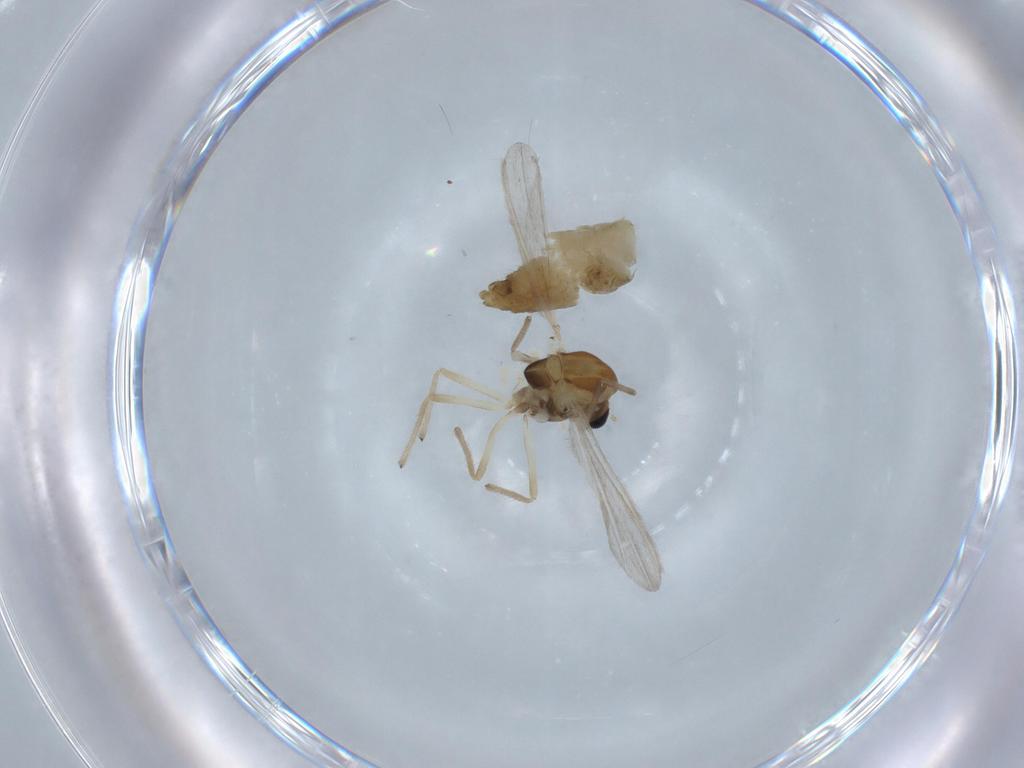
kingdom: Animalia
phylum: Arthropoda
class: Insecta
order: Diptera
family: Chironomidae
